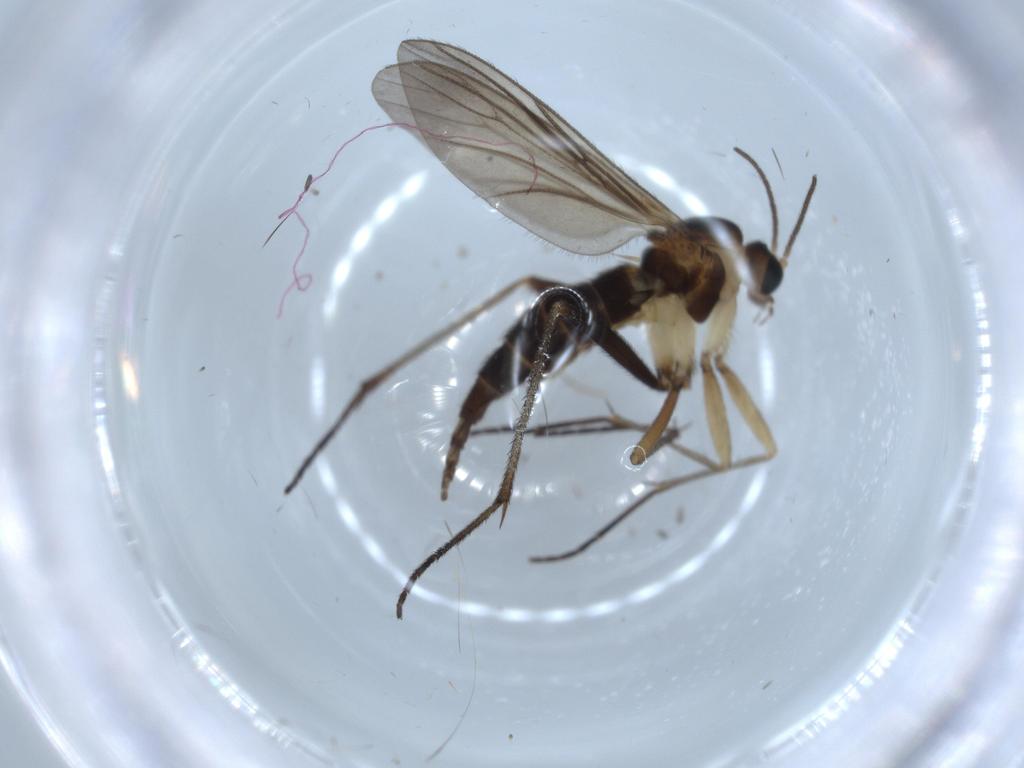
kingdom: Animalia
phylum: Arthropoda
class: Insecta
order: Diptera
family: Sciaridae
